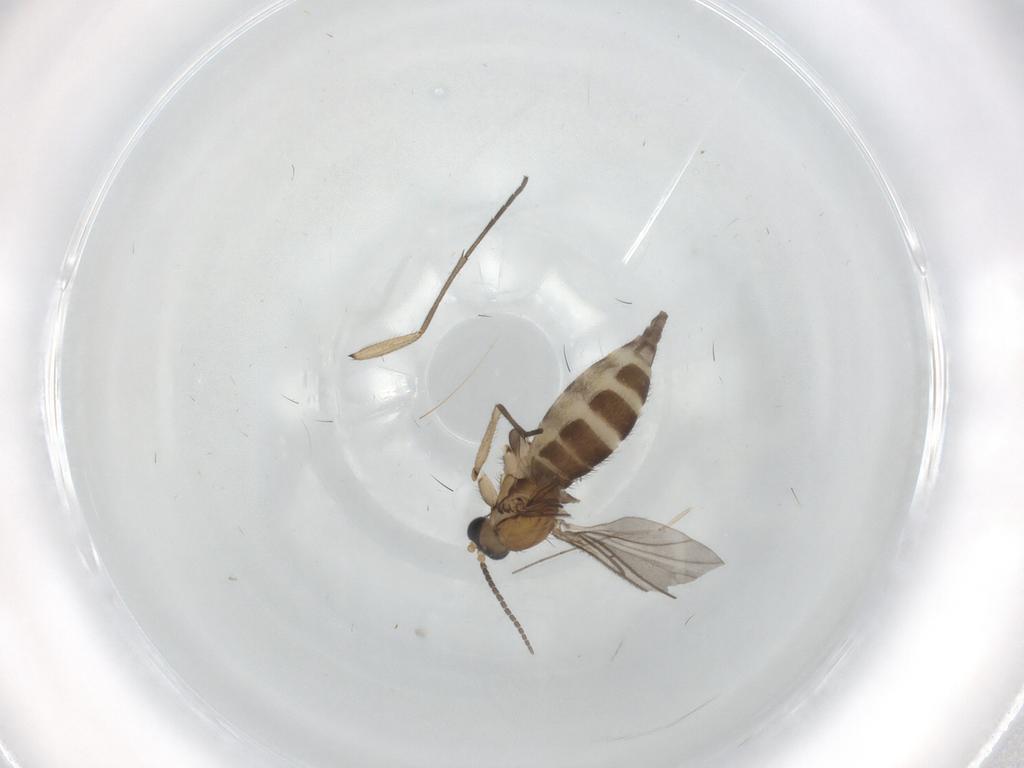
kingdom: Animalia
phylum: Arthropoda
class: Insecta
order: Diptera
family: Sciaridae
